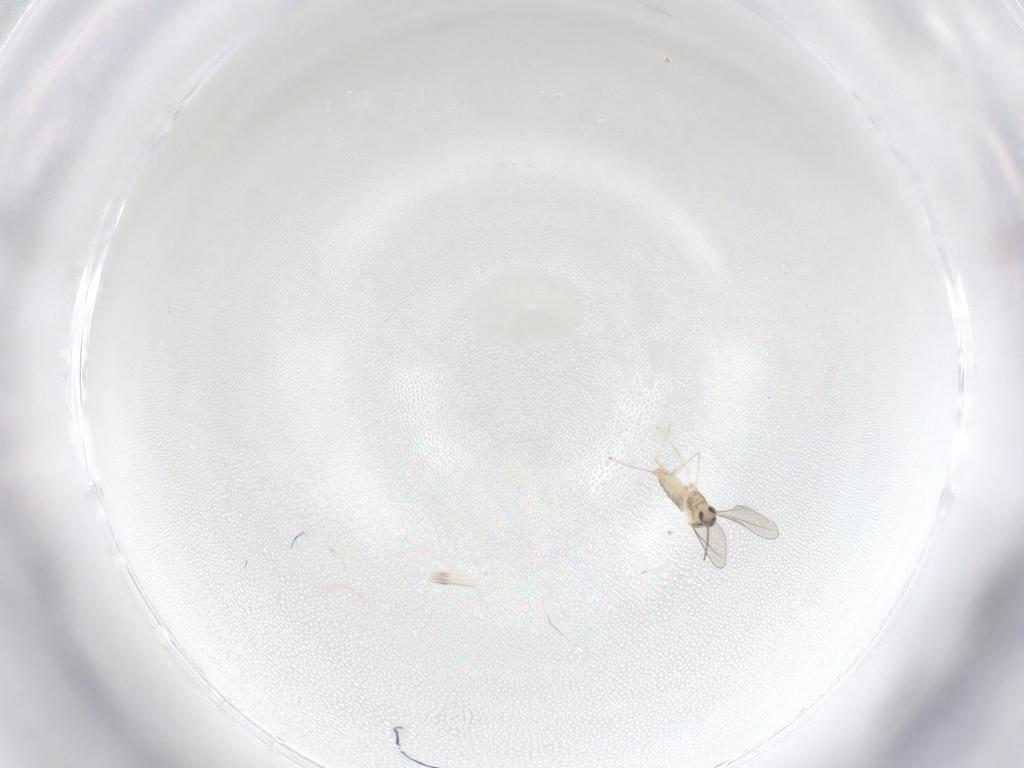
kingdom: Animalia
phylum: Arthropoda
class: Insecta
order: Diptera
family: Cecidomyiidae
